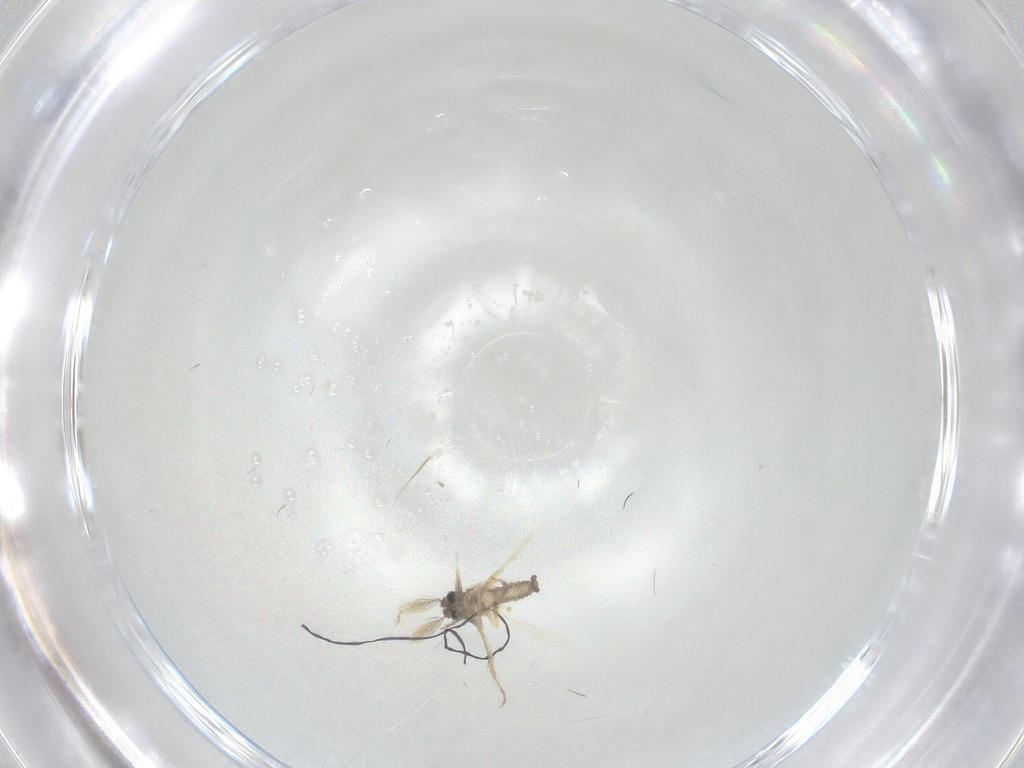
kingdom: Animalia
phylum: Arthropoda
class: Insecta
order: Diptera
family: Ceratopogonidae
